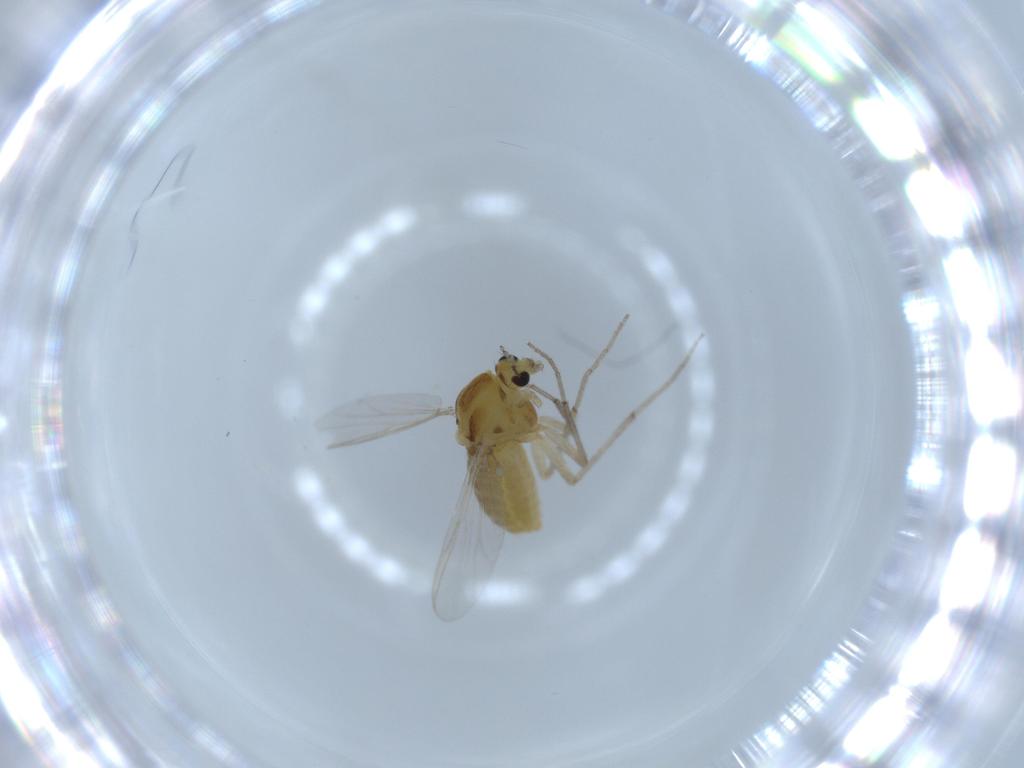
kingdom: Animalia
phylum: Arthropoda
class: Insecta
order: Diptera
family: Chironomidae
